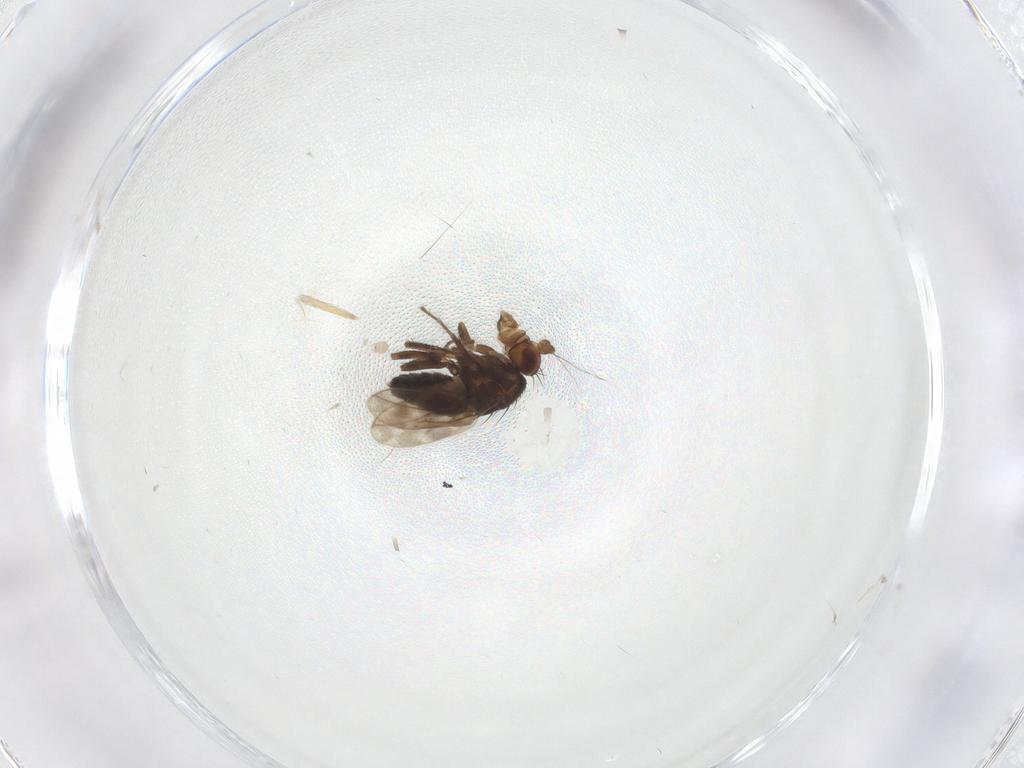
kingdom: Animalia
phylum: Arthropoda
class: Insecta
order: Diptera
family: Sphaeroceridae
